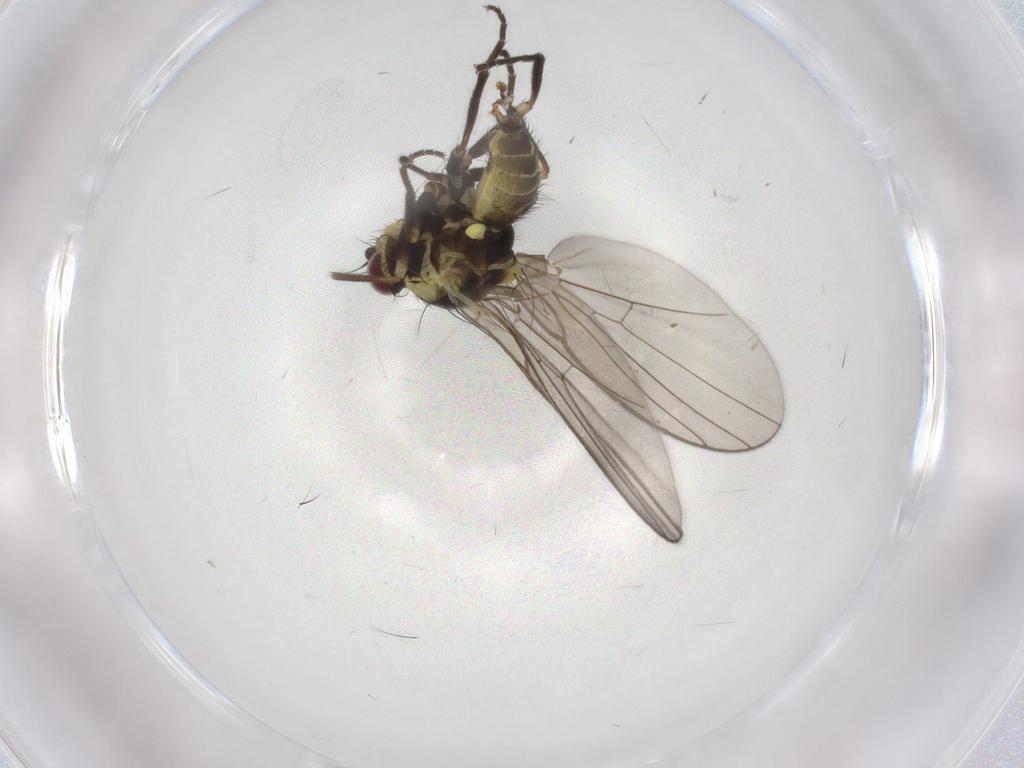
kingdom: Animalia
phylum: Arthropoda
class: Insecta
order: Diptera
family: Agromyzidae
